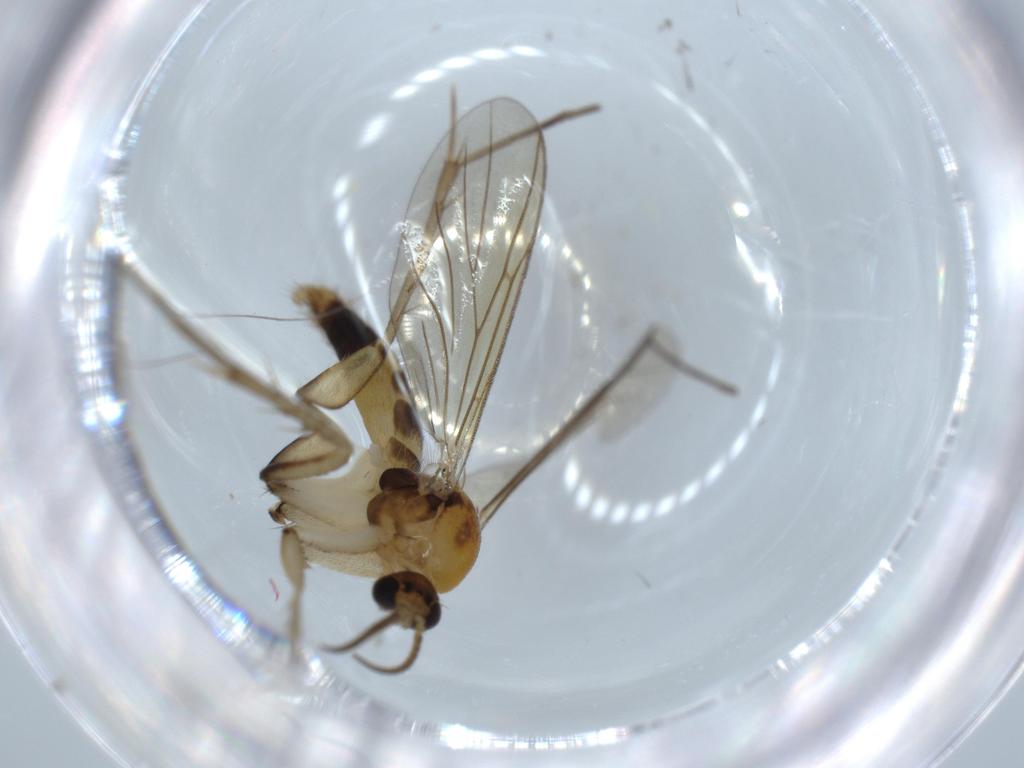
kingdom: Animalia
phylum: Arthropoda
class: Insecta
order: Diptera
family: Mycetophilidae
